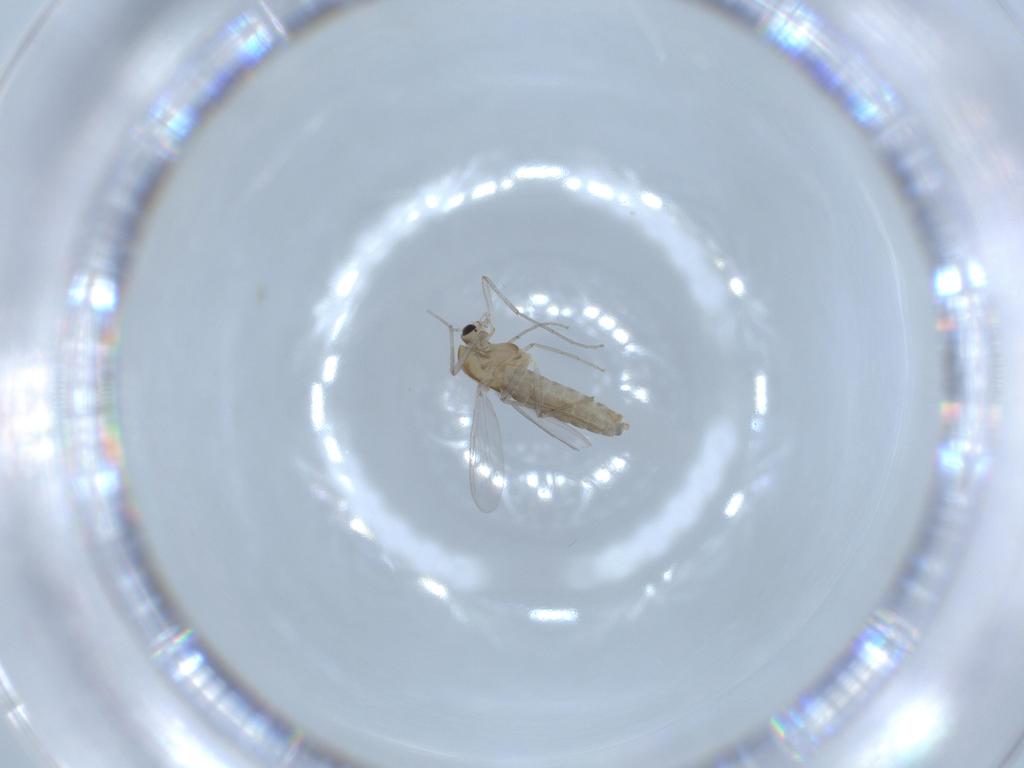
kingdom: Animalia
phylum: Arthropoda
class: Insecta
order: Diptera
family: Chironomidae
